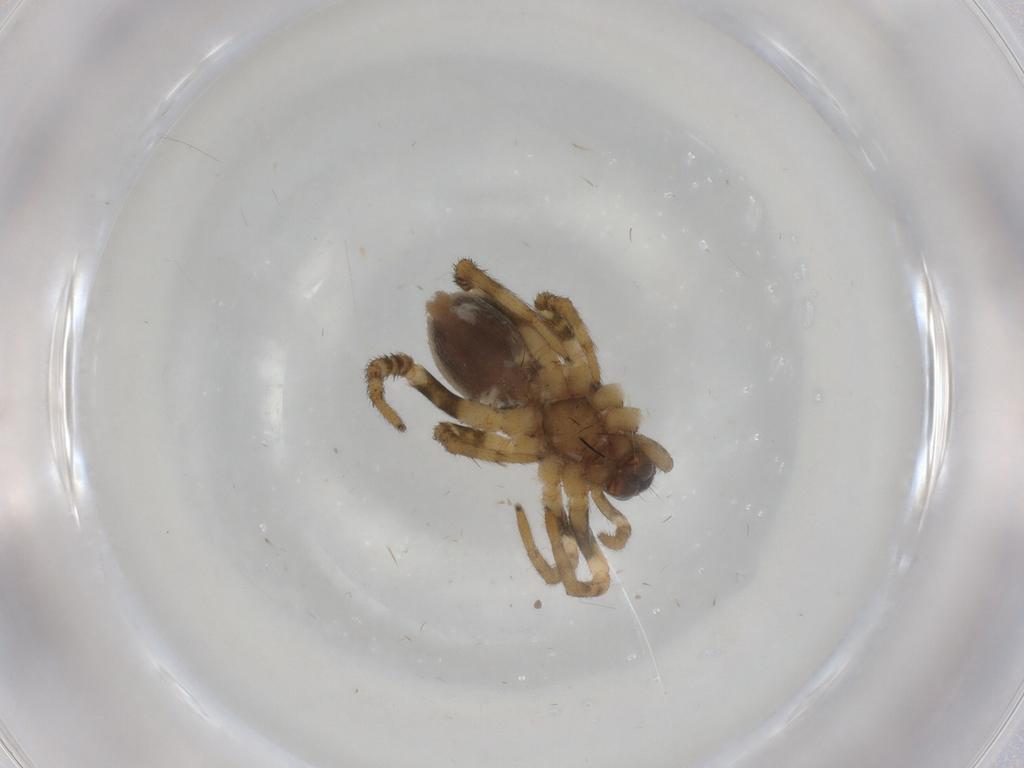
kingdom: Animalia
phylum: Arthropoda
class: Arachnida
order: Araneae
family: Lycosidae
